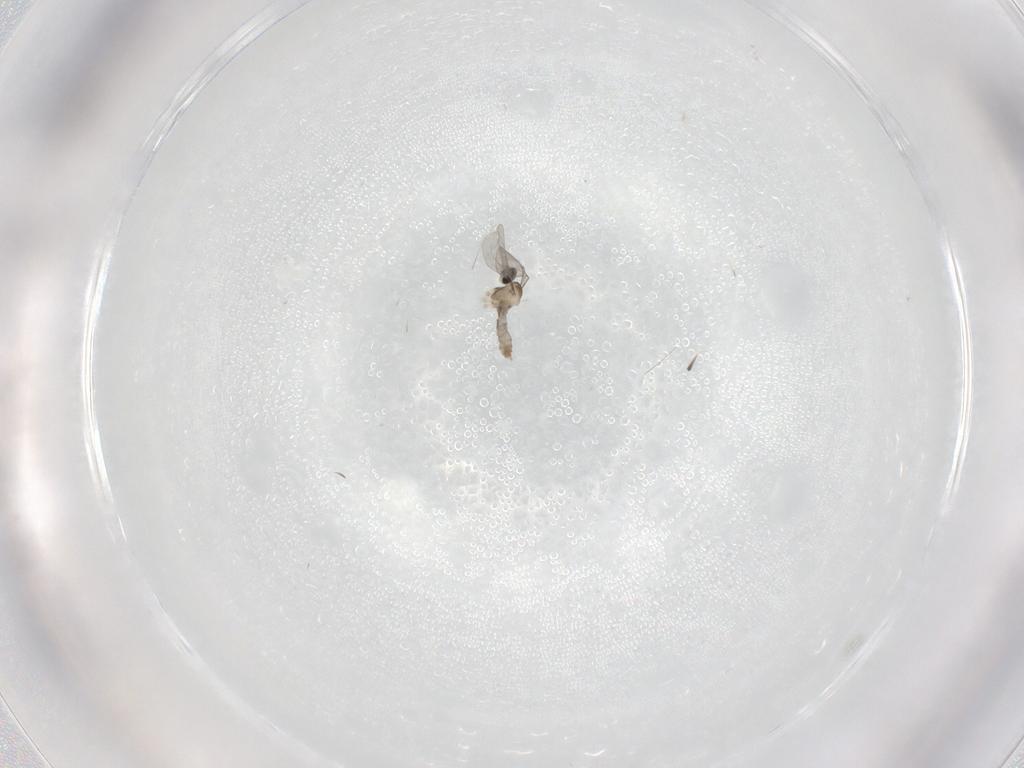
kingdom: Animalia
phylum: Arthropoda
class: Insecta
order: Diptera
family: Cecidomyiidae
